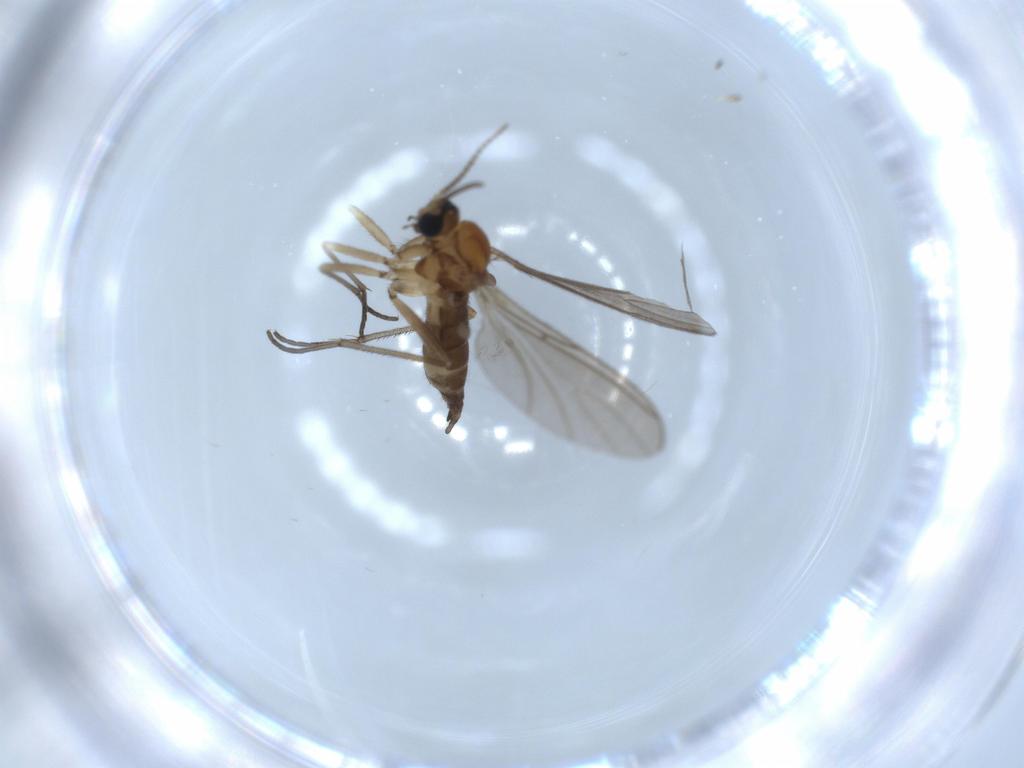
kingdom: Animalia
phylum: Arthropoda
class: Insecta
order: Diptera
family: Sciaridae
